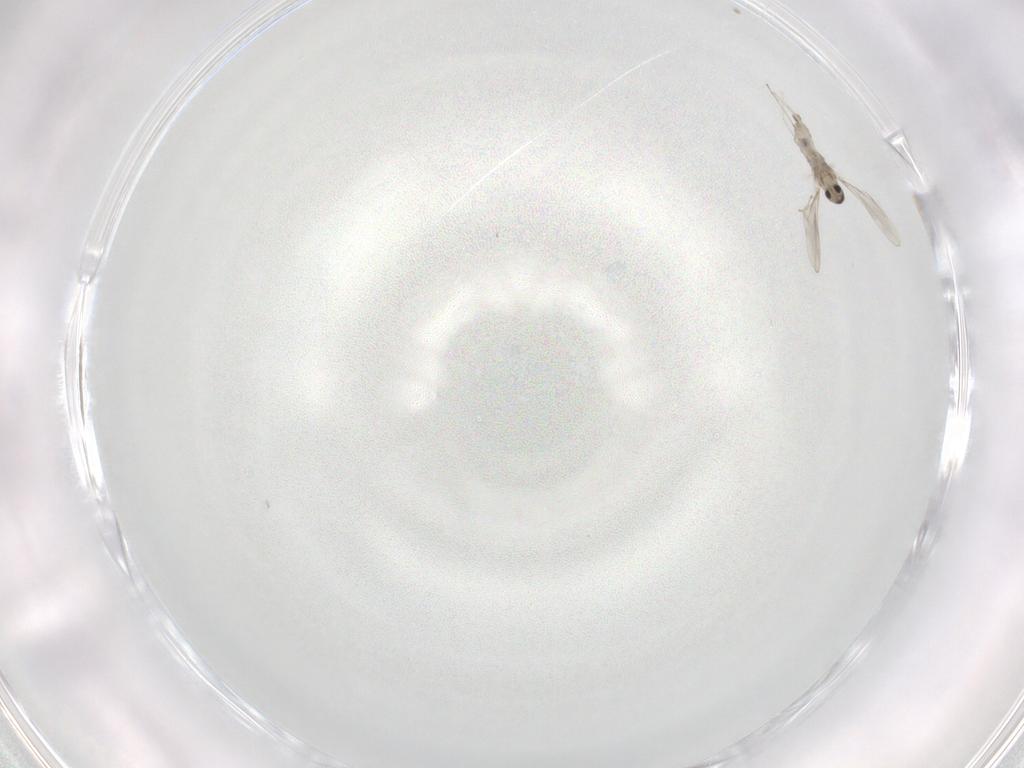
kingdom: Animalia
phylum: Arthropoda
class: Insecta
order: Diptera
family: Cecidomyiidae
